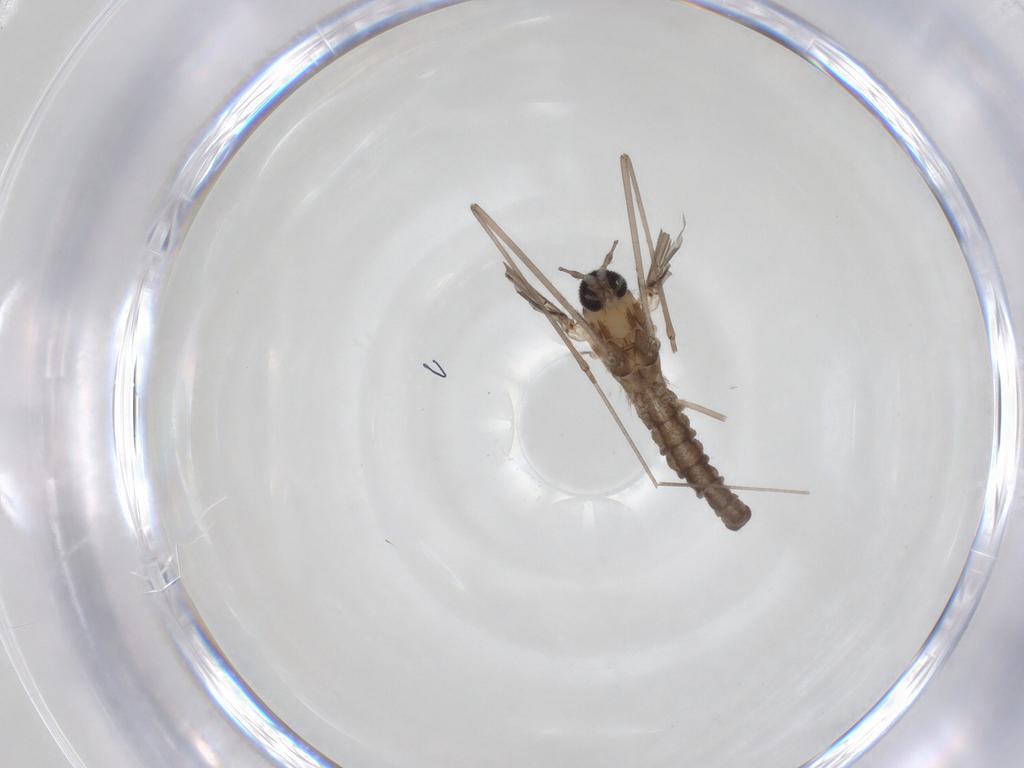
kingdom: Animalia
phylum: Arthropoda
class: Insecta
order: Diptera
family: Cecidomyiidae
